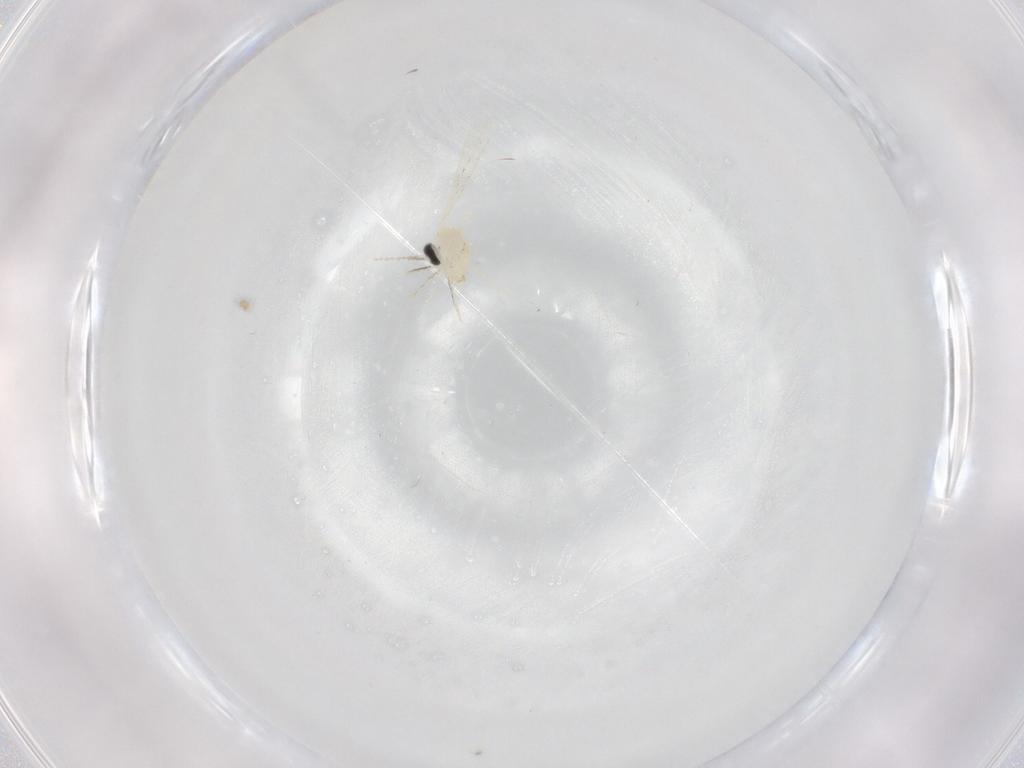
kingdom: Animalia
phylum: Arthropoda
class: Insecta
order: Diptera
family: Cecidomyiidae
